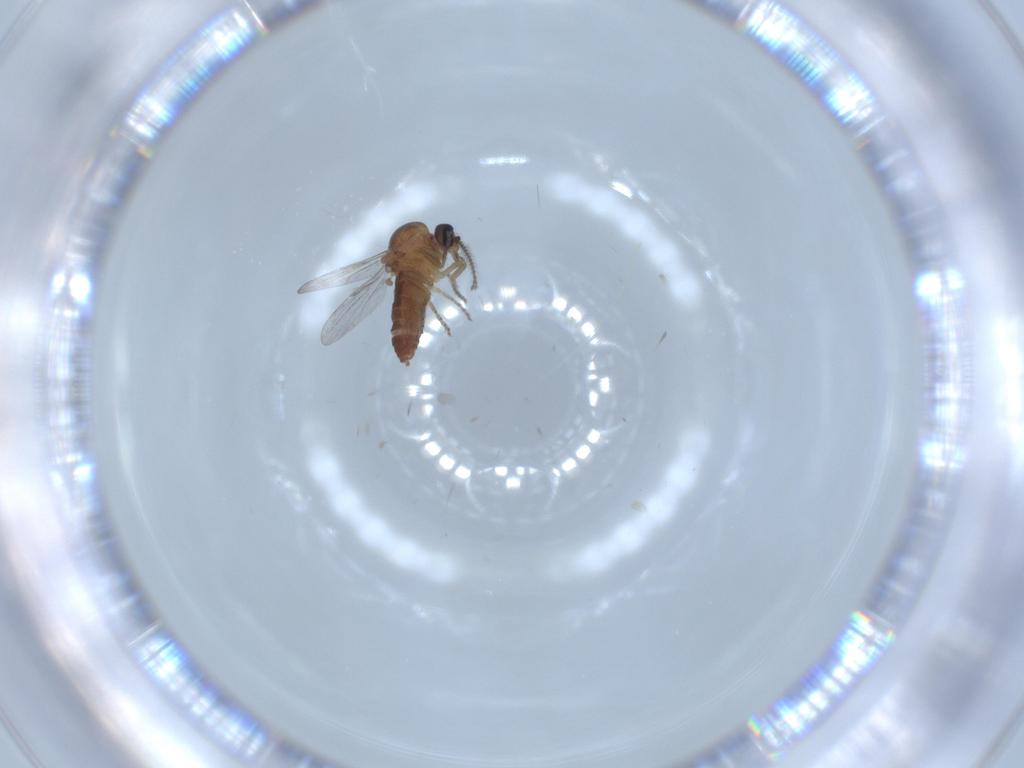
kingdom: Animalia
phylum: Arthropoda
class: Insecta
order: Diptera
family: Ceratopogonidae
